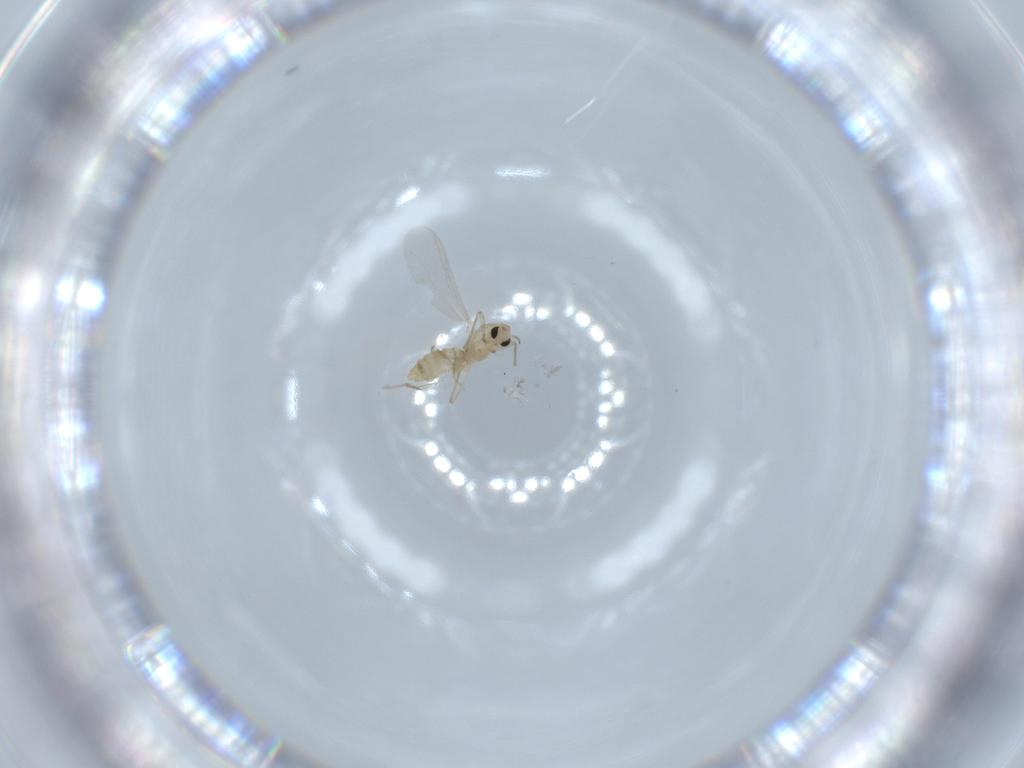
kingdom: Animalia
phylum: Arthropoda
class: Insecta
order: Diptera
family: Chironomidae
